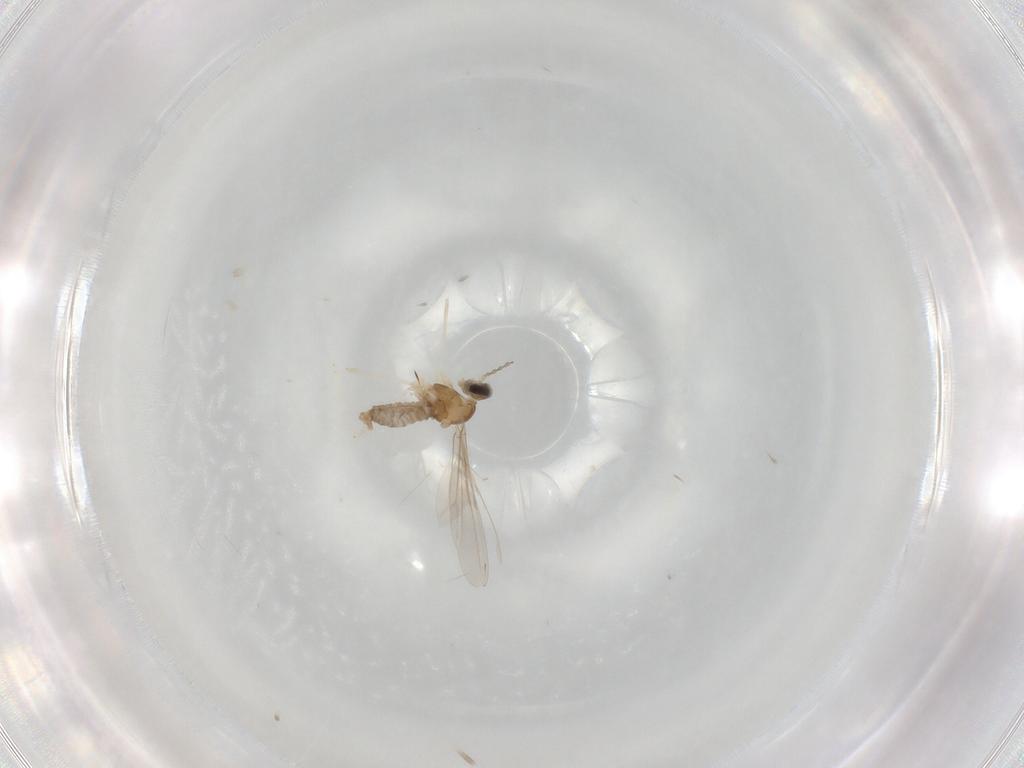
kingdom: Animalia
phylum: Arthropoda
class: Insecta
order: Diptera
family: Cecidomyiidae
